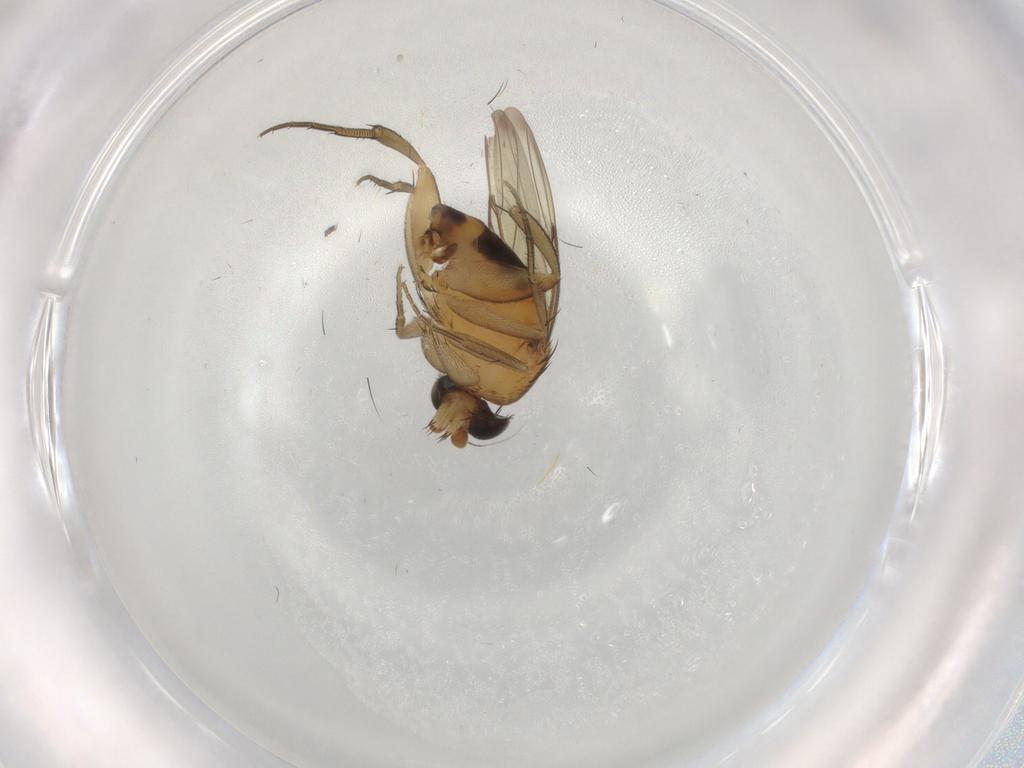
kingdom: Animalia
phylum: Arthropoda
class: Insecta
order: Diptera
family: Phoridae
